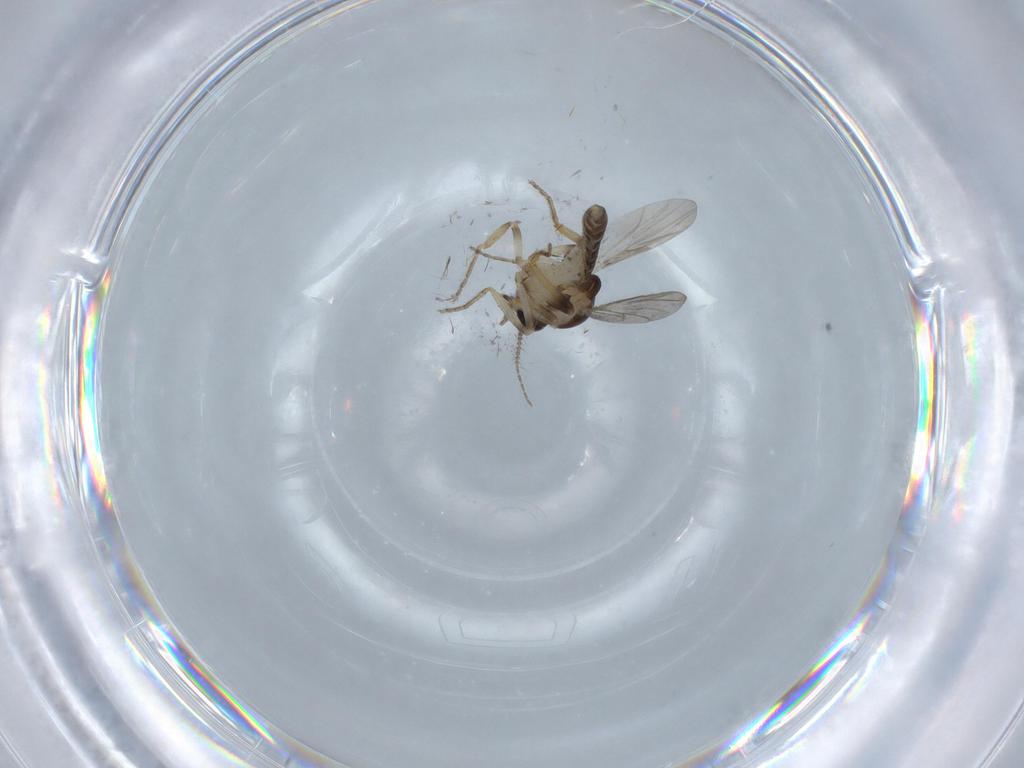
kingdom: Animalia
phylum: Arthropoda
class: Insecta
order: Diptera
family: Ceratopogonidae
